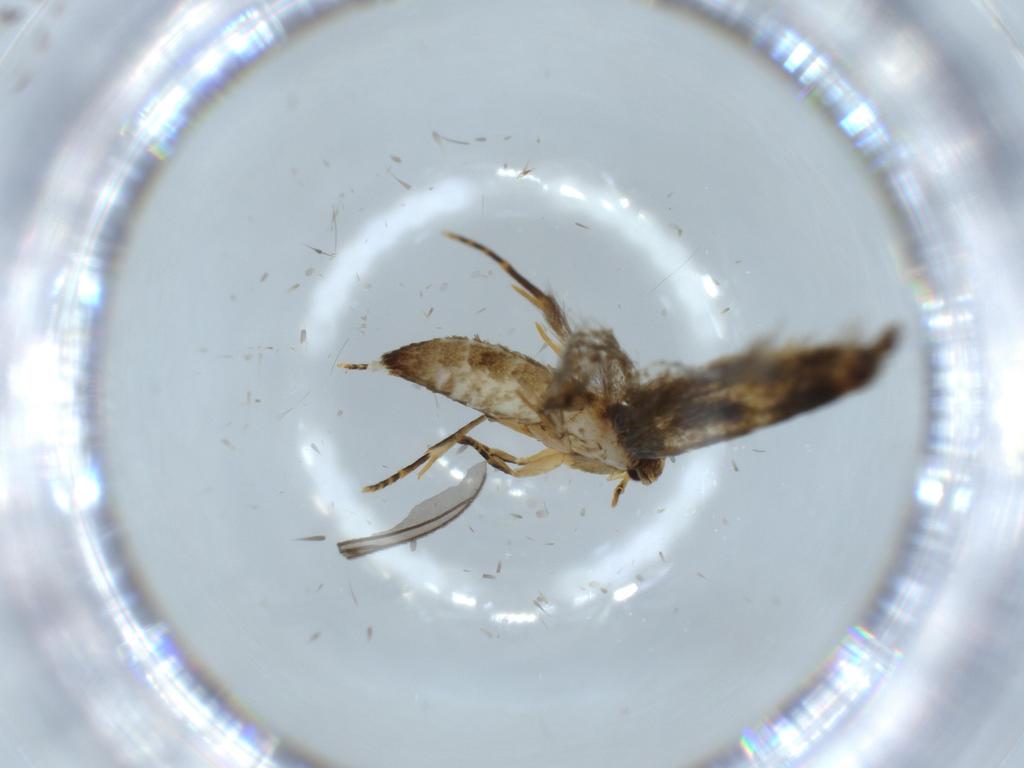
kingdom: Animalia
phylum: Arthropoda
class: Insecta
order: Lepidoptera
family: Tineidae
